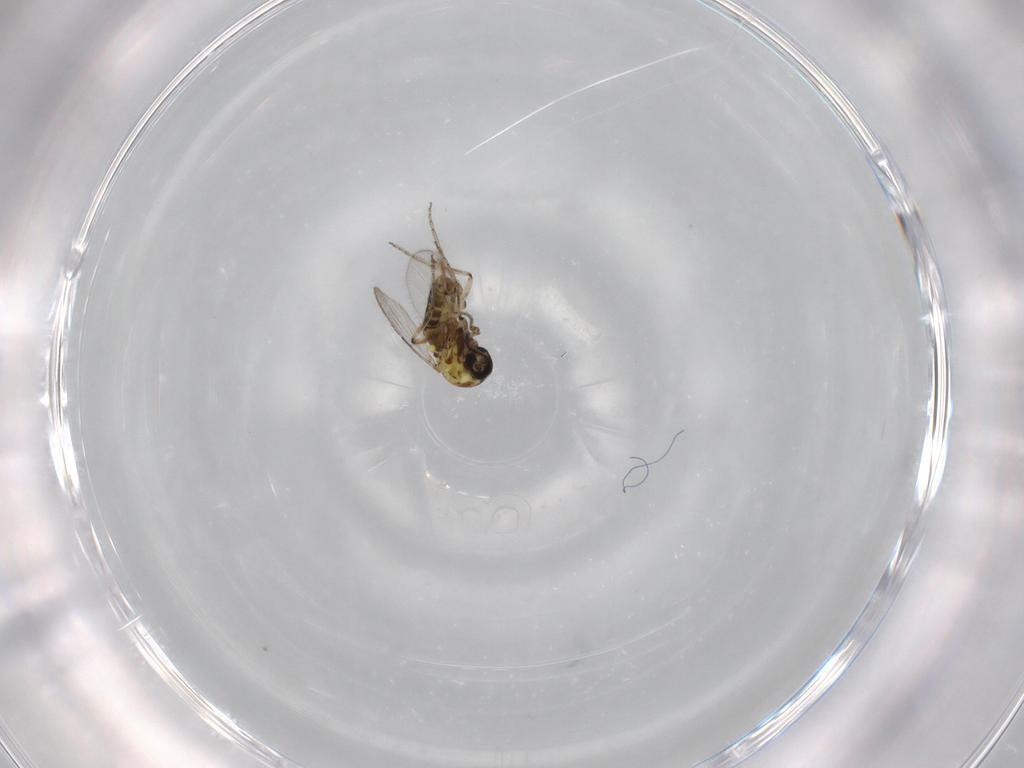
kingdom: Animalia
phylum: Arthropoda
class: Insecta
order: Diptera
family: Ceratopogonidae
